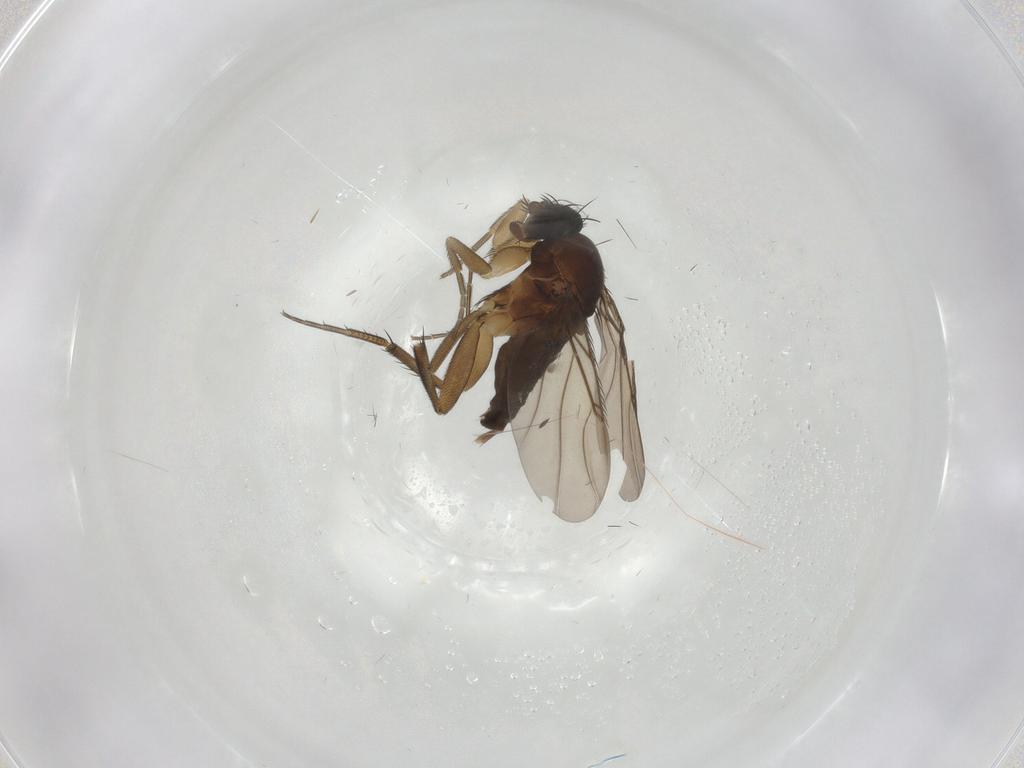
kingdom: Animalia
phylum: Arthropoda
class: Insecta
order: Diptera
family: Phoridae
